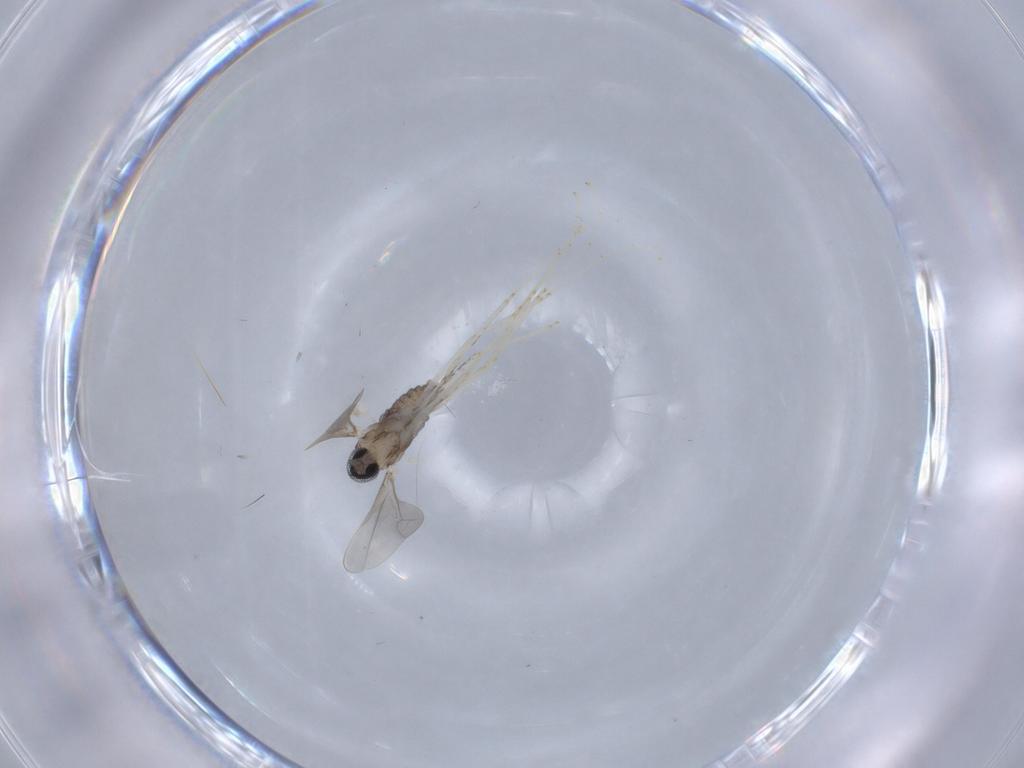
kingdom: Animalia
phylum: Arthropoda
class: Insecta
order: Diptera
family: Cecidomyiidae
